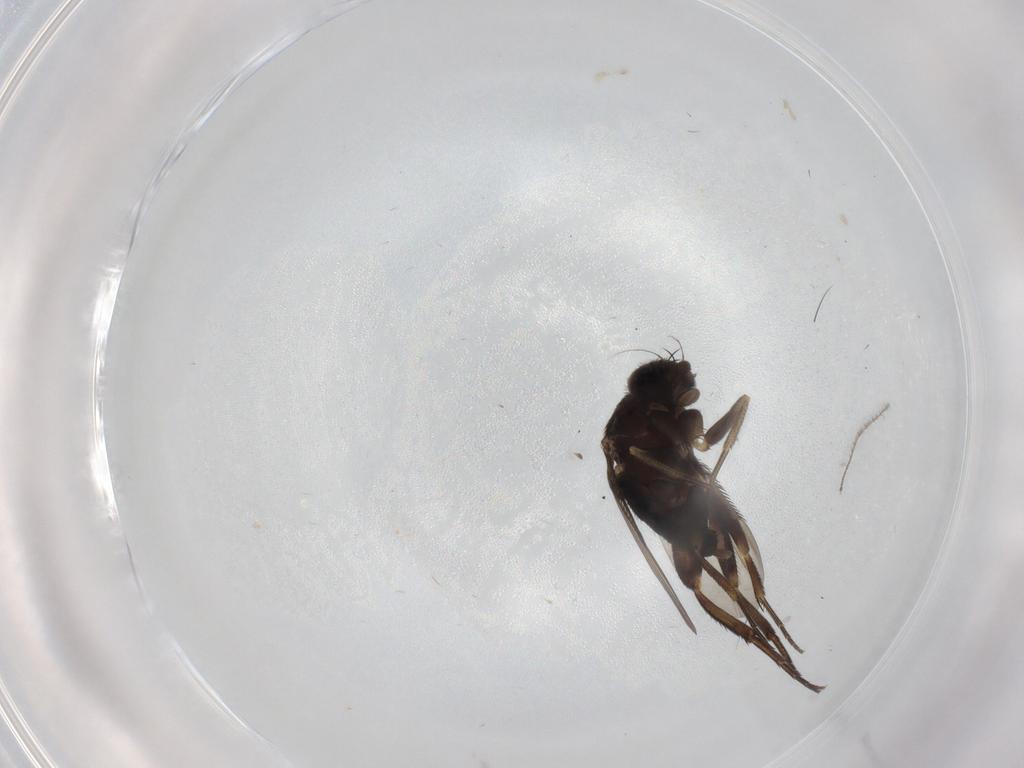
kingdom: Animalia
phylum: Arthropoda
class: Insecta
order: Diptera
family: Phoridae
